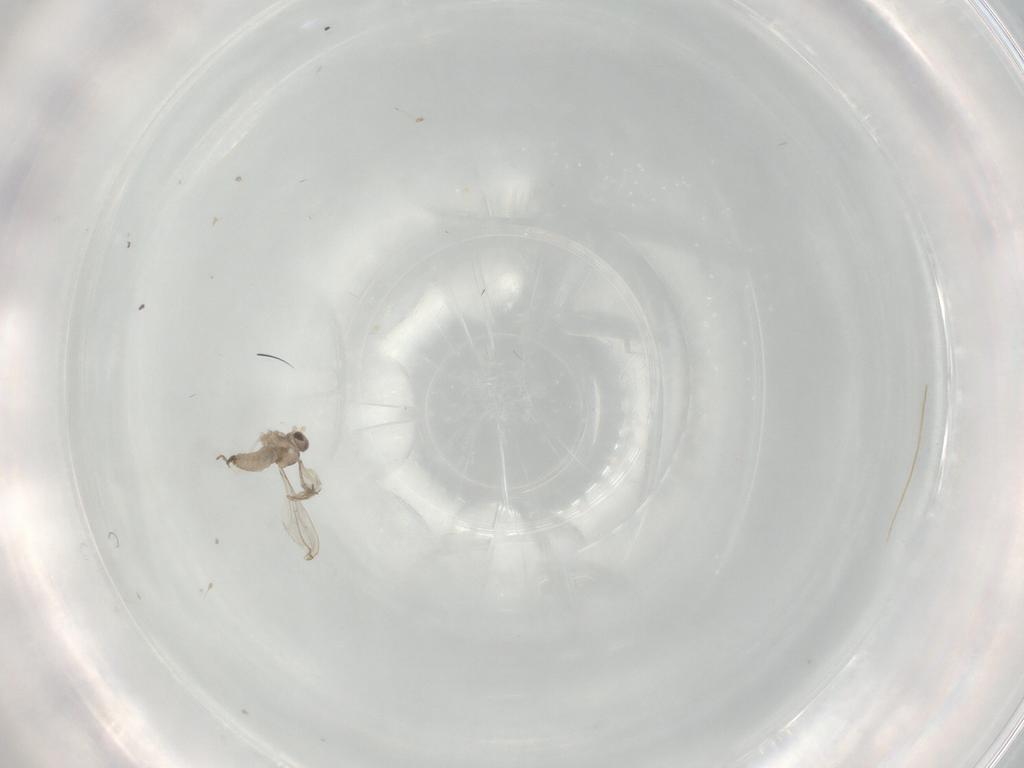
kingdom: Animalia
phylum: Arthropoda
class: Insecta
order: Diptera
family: Cecidomyiidae
